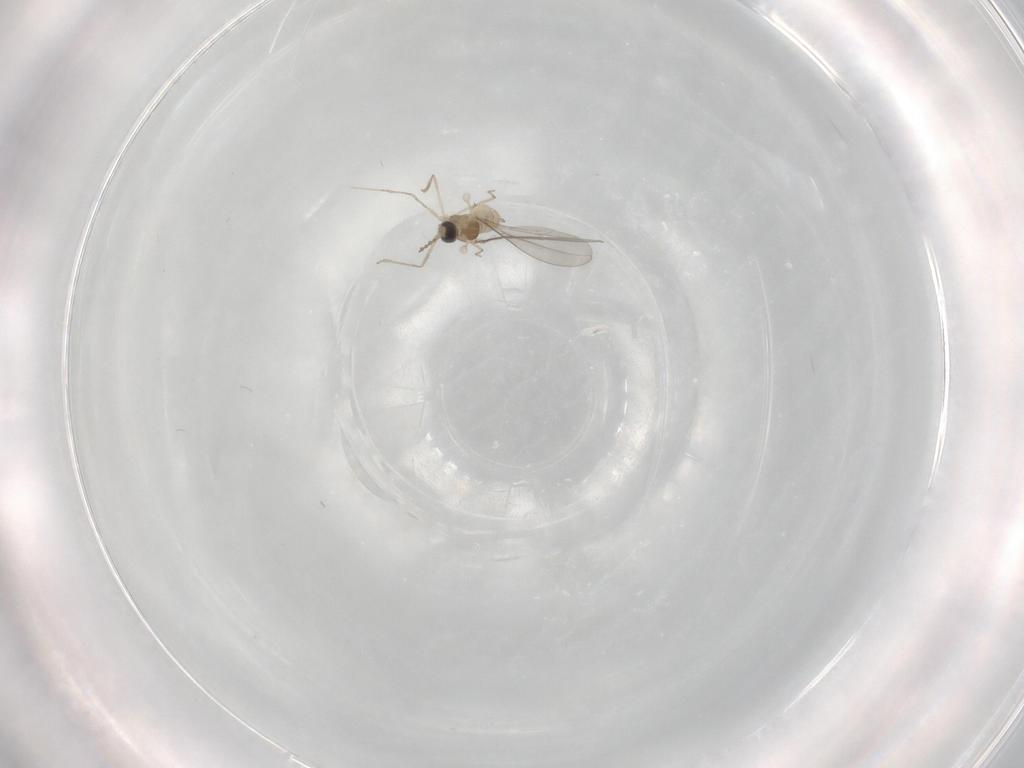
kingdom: Animalia
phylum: Arthropoda
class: Insecta
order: Diptera
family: Cecidomyiidae
